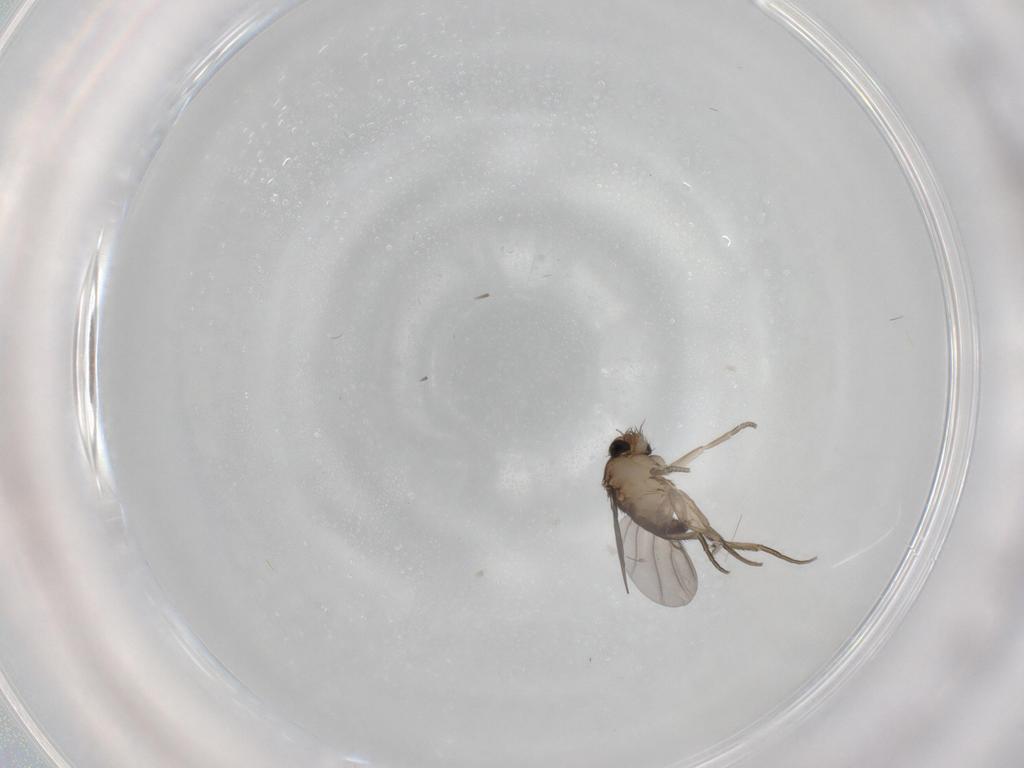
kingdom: Animalia
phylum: Arthropoda
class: Insecta
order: Diptera
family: Phoridae
